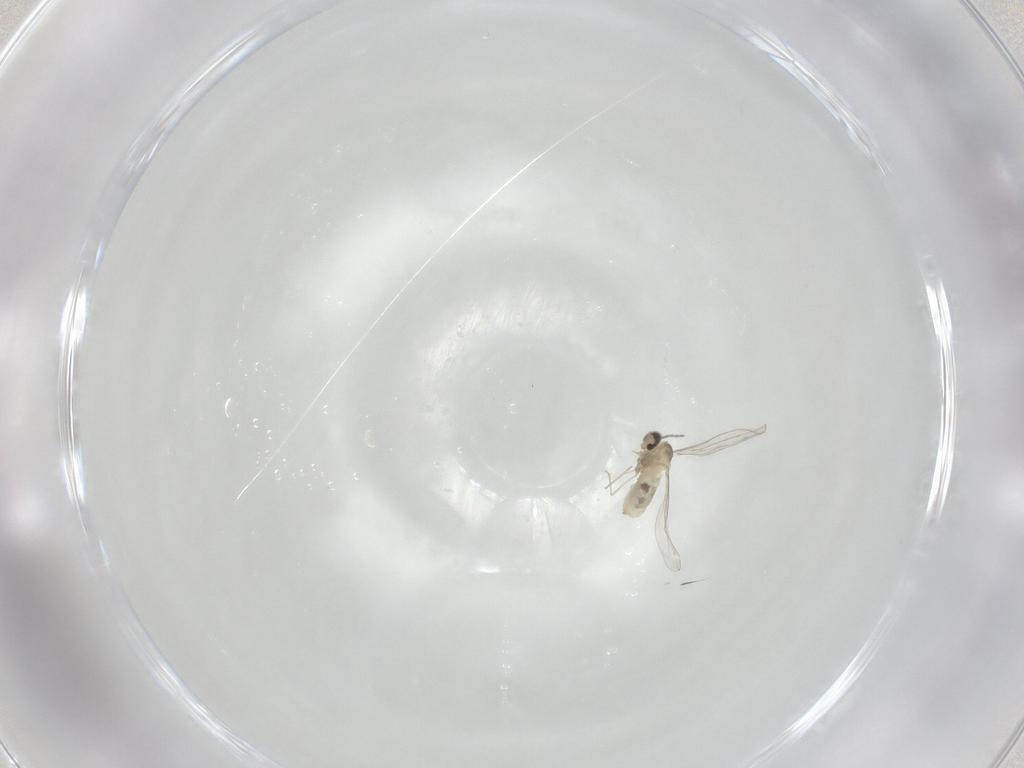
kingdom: Animalia
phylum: Arthropoda
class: Insecta
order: Diptera
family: Cecidomyiidae
